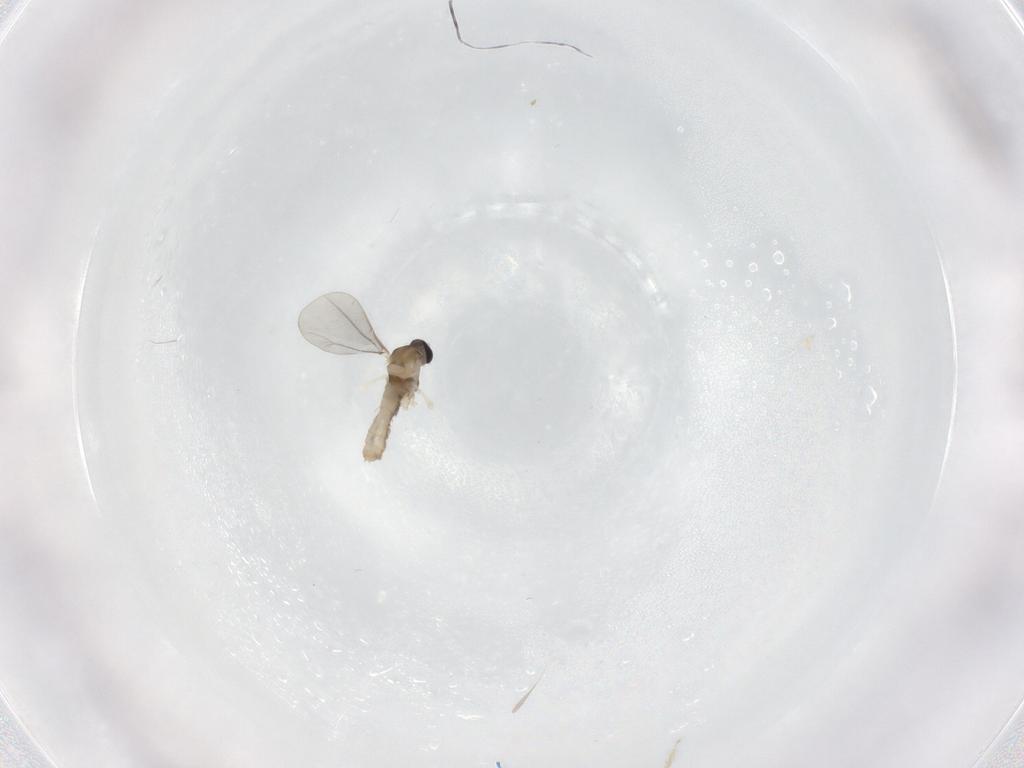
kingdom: Animalia
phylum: Arthropoda
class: Insecta
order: Diptera
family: Cecidomyiidae
